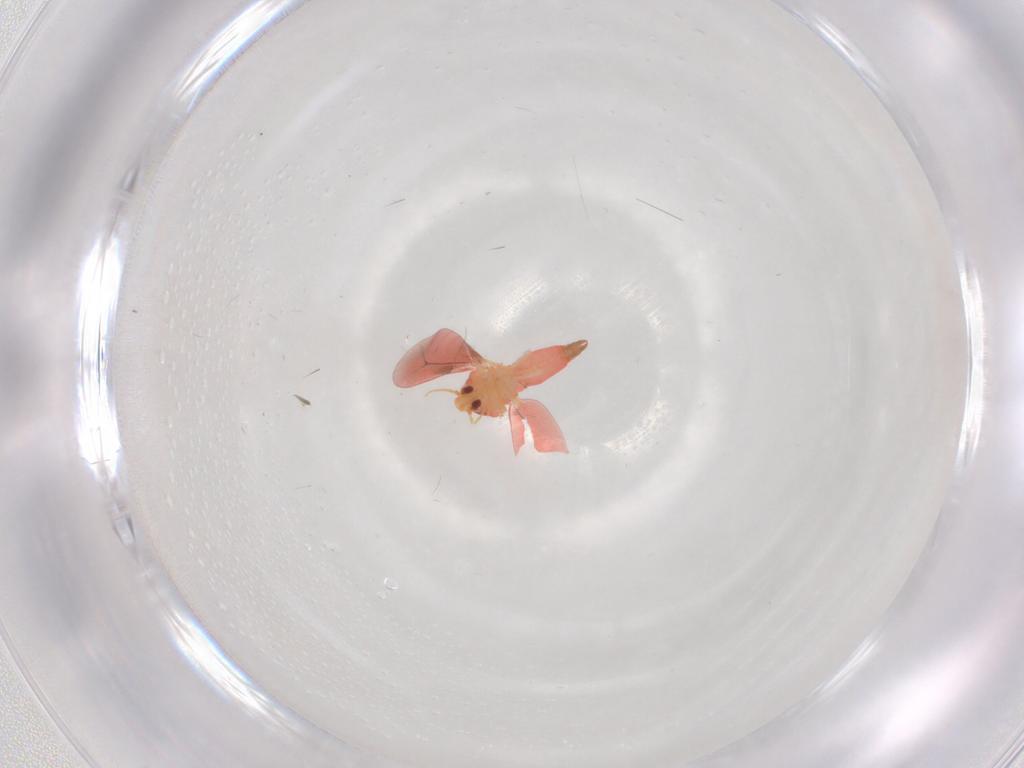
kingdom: Animalia
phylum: Arthropoda
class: Insecta
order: Hemiptera
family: Aleyrodidae
